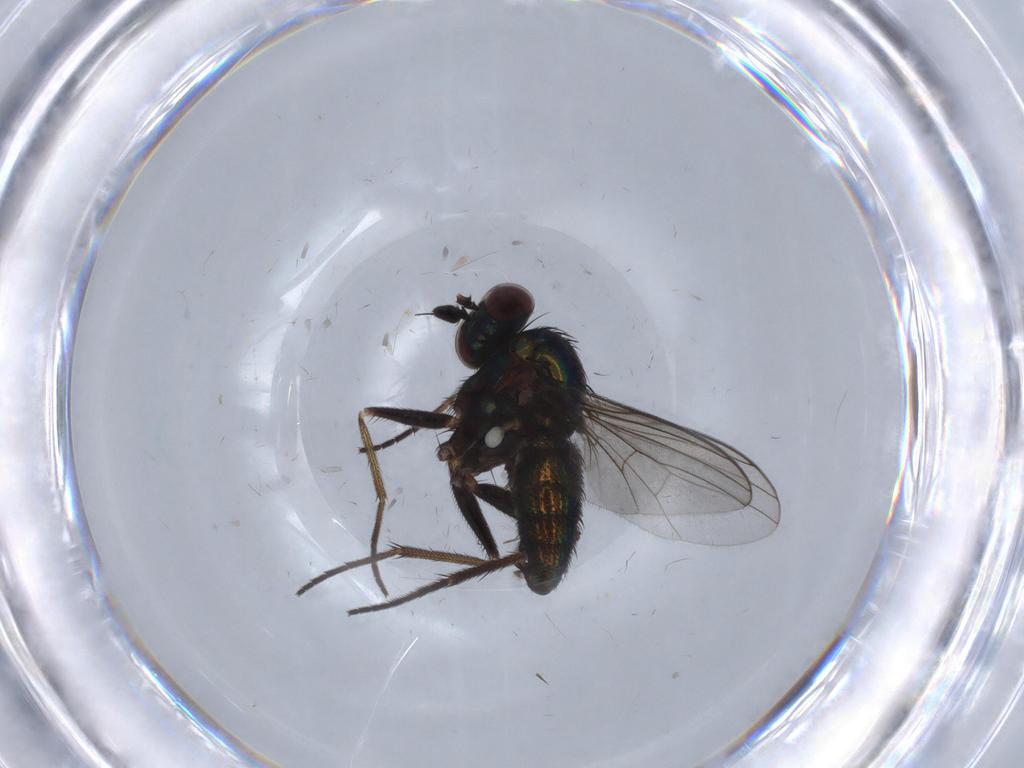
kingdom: Animalia
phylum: Arthropoda
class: Insecta
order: Diptera
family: Dolichopodidae
